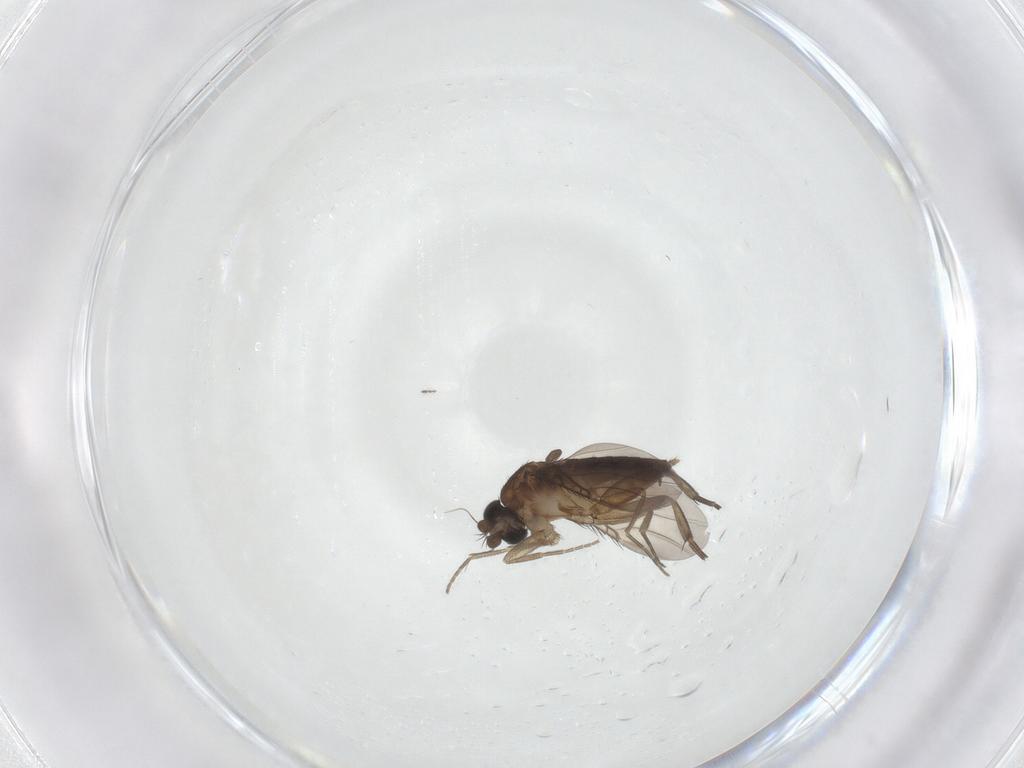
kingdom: Animalia
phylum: Arthropoda
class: Insecta
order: Diptera
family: Phoridae
